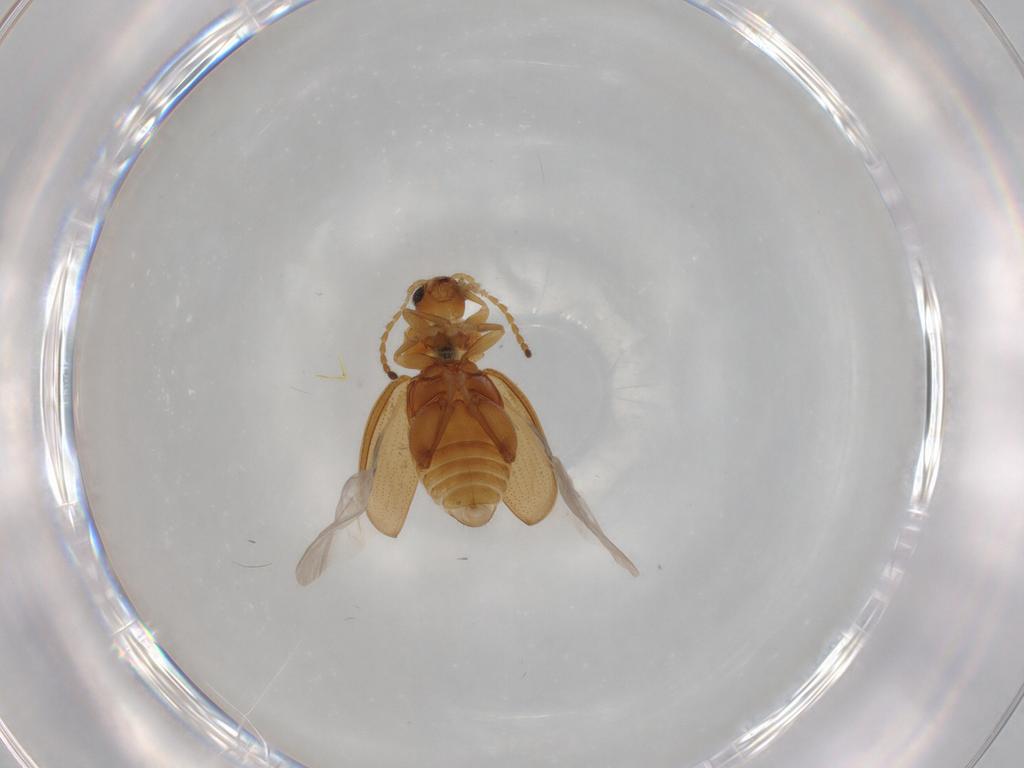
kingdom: Animalia
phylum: Arthropoda
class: Insecta
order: Coleoptera
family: Chrysomelidae
